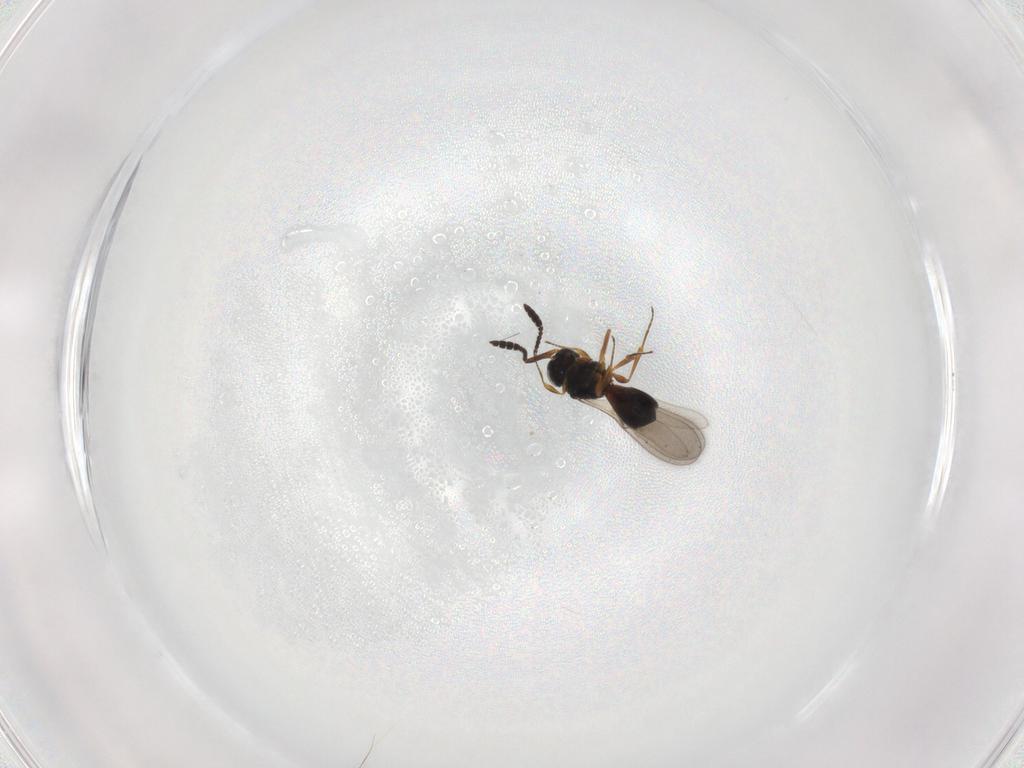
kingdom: Animalia
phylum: Arthropoda
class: Insecta
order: Hymenoptera
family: Scelionidae
